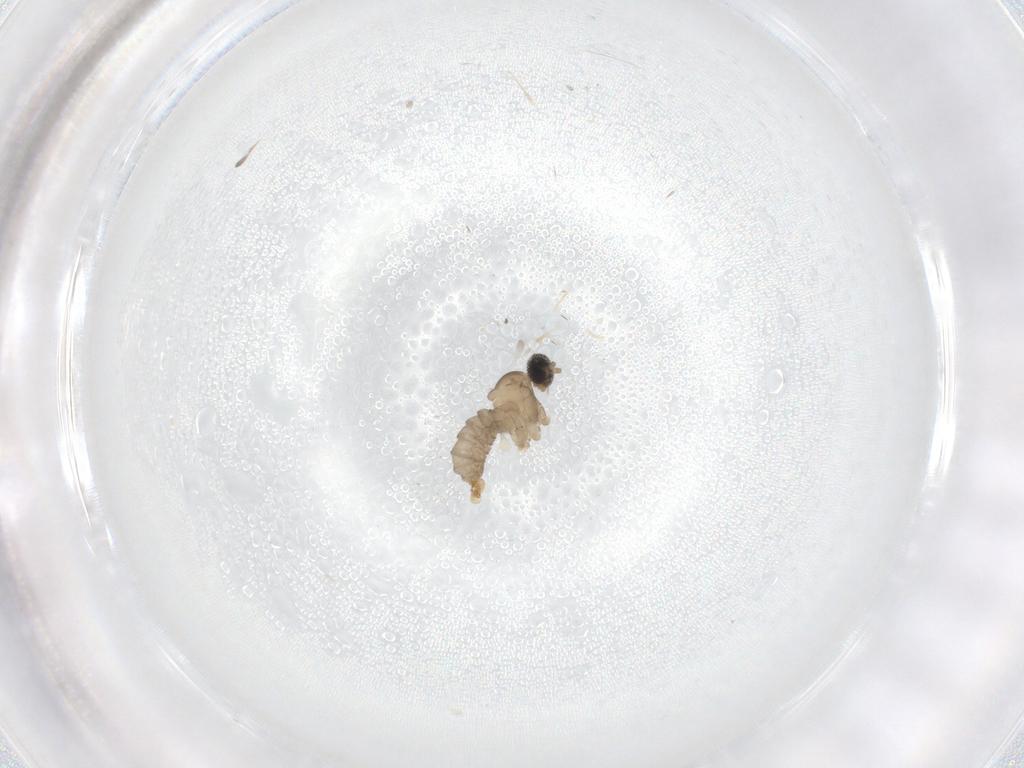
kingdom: Animalia
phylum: Arthropoda
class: Insecta
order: Diptera
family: Cecidomyiidae
